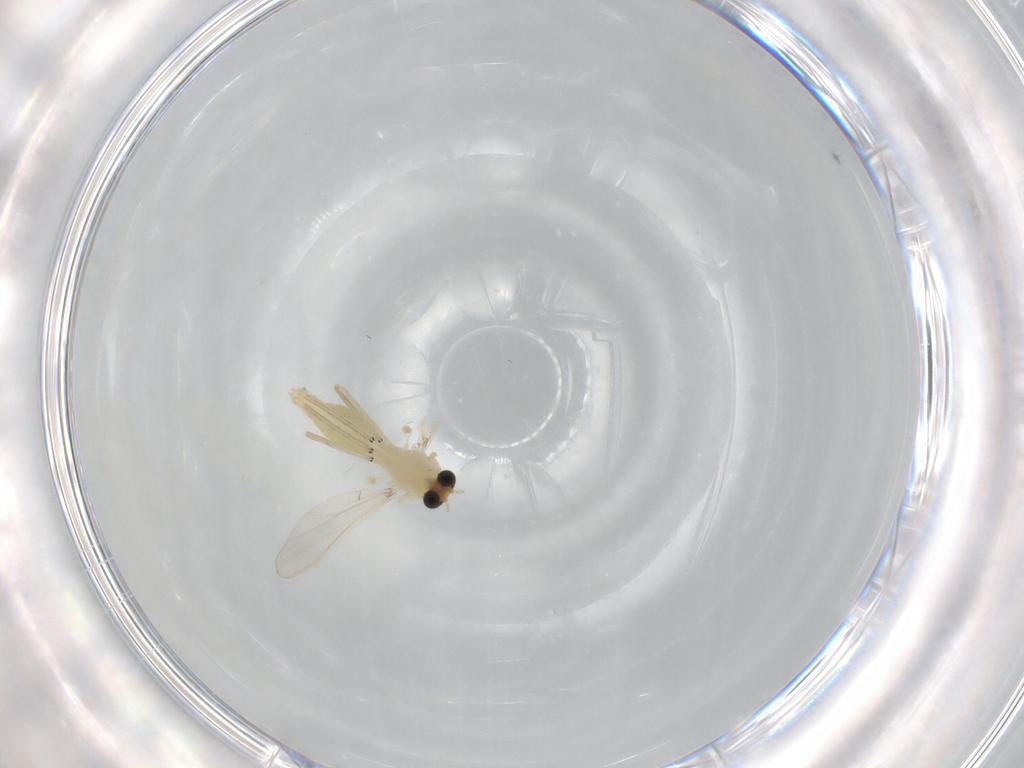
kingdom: Animalia
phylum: Arthropoda
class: Insecta
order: Diptera
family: Chironomidae
